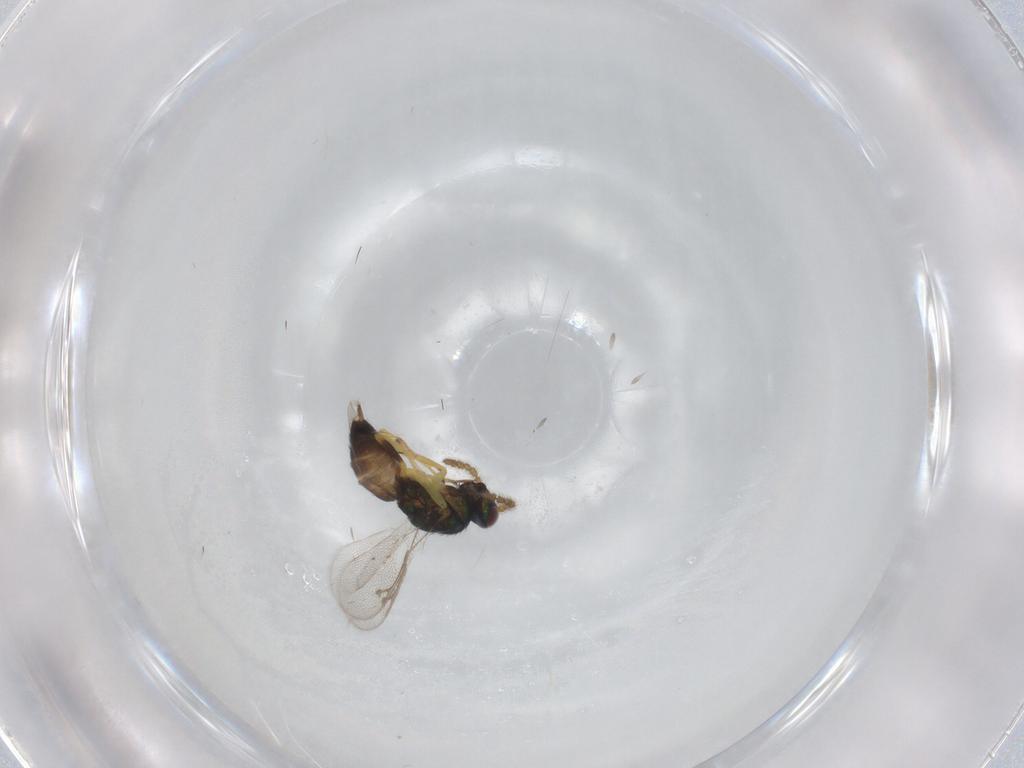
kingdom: Animalia
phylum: Arthropoda
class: Insecta
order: Hymenoptera
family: Pirenidae
